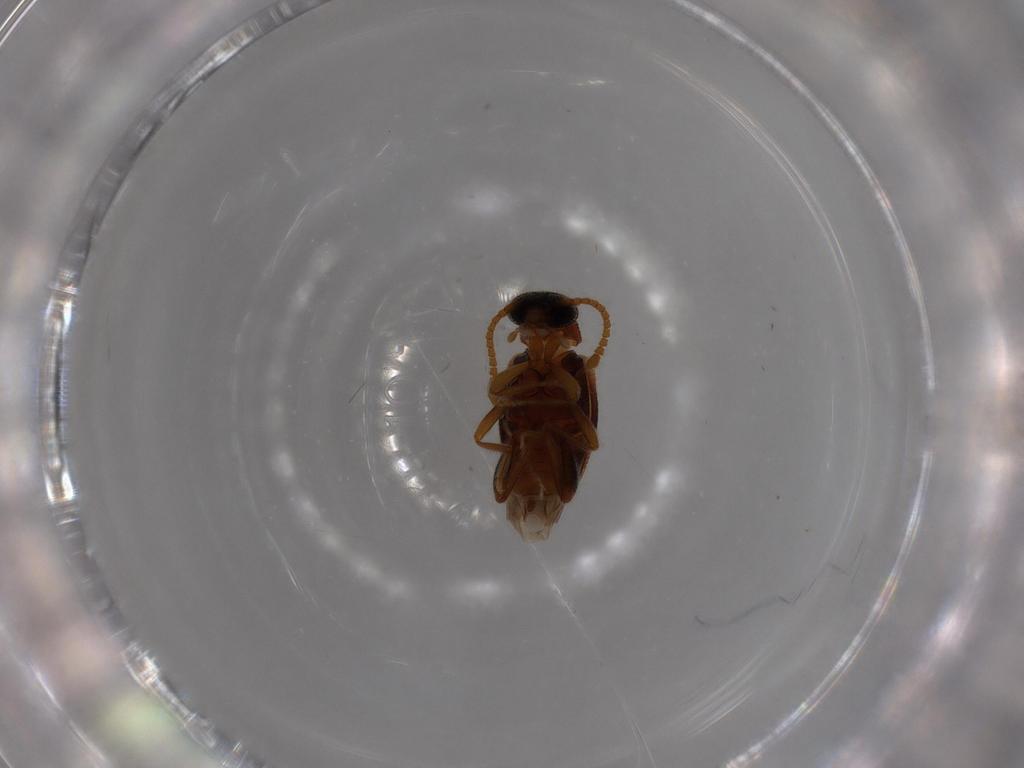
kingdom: Animalia
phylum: Arthropoda
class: Insecta
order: Coleoptera
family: Aderidae
